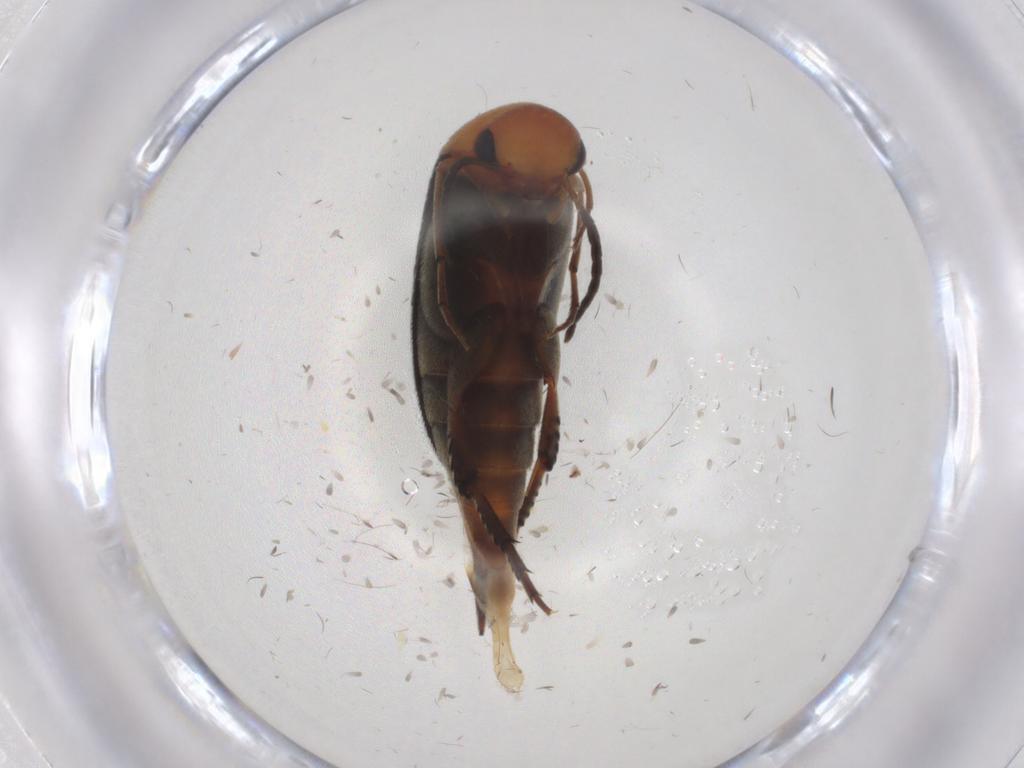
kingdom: Animalia
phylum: Arthropoda
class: Insecta
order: Coleoptera
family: Mordellidae
